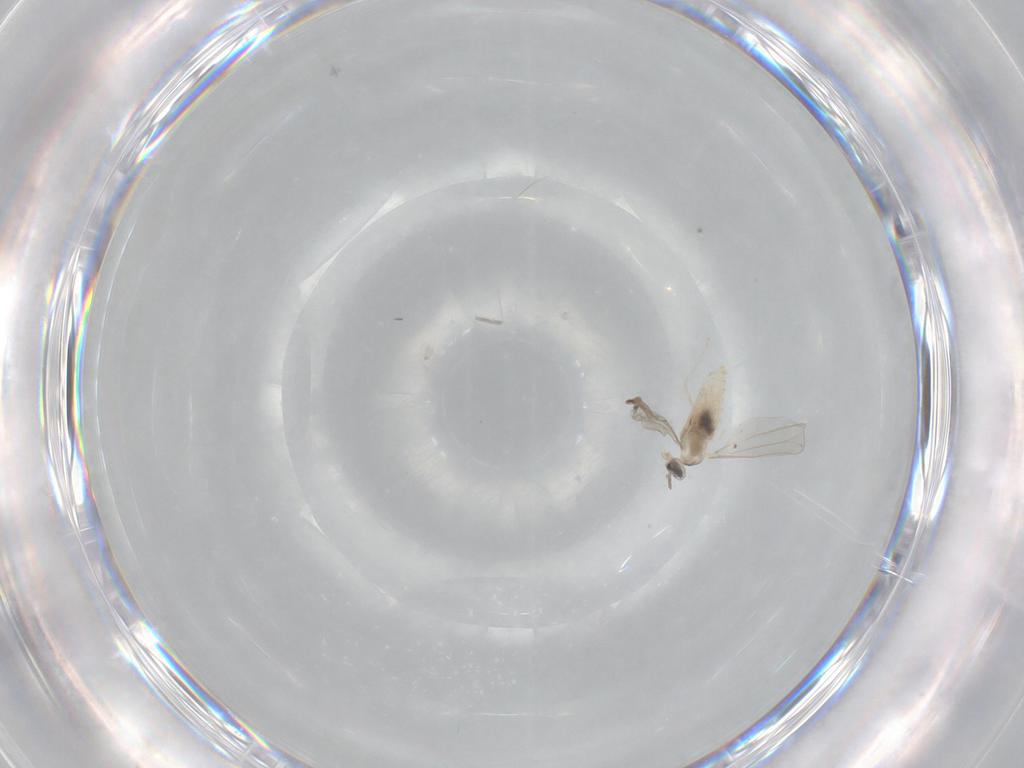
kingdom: Animalia
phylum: Arthropoda
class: Insecta
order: Diptera
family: Cecidomyiidae
